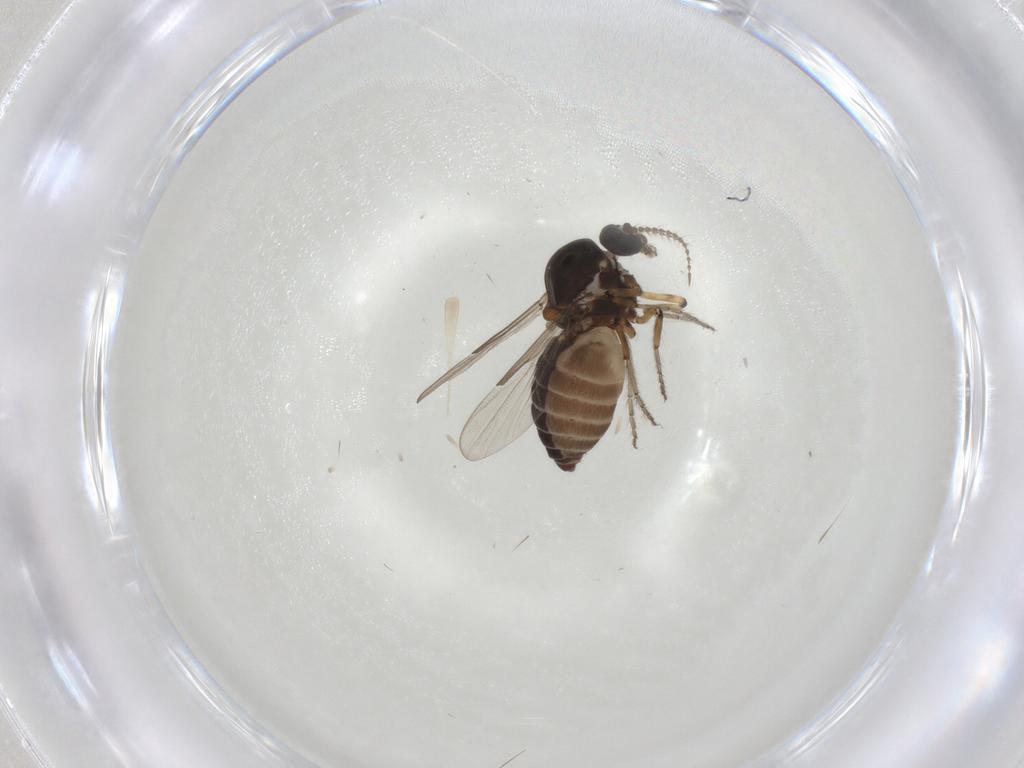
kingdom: Animalia
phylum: Arthropoda
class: Insecta
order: Diptera
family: Ceratopogonidae
